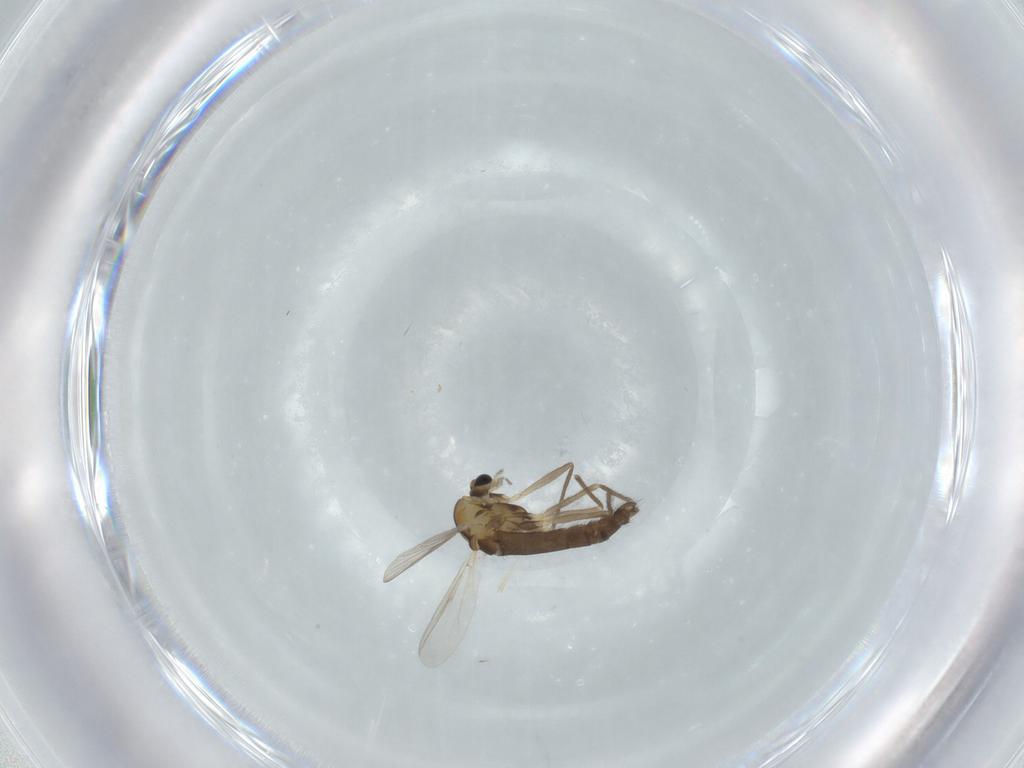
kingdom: Animalia
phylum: Arthropoda
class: Insecta
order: Diptera
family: Chironomidae
